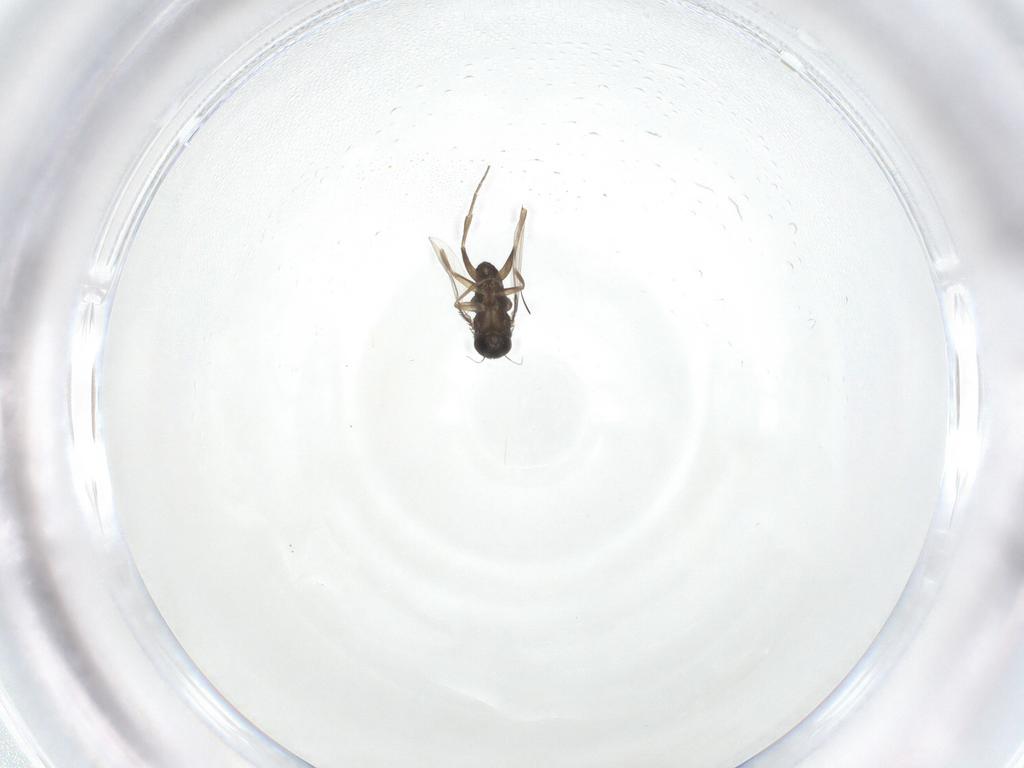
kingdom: Animalia
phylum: Arthropoda
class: Insecta
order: Diptera
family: Phoridae
